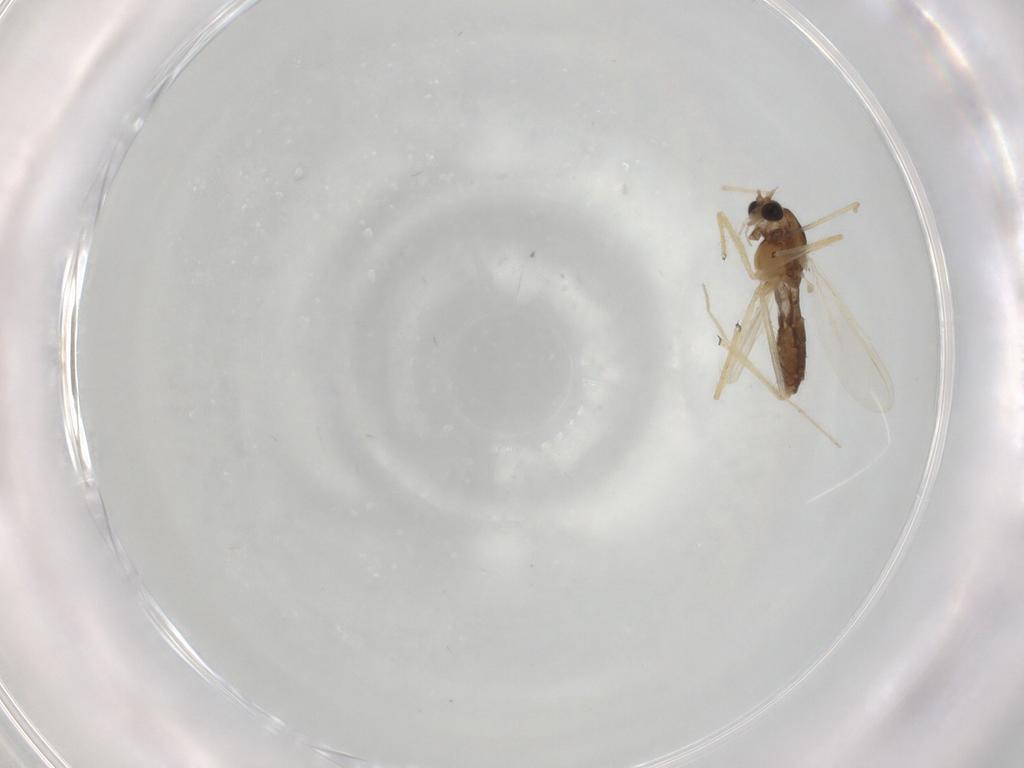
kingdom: Animalia
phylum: Arthropoda
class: Insecta
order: Diptera
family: Chironomidae
